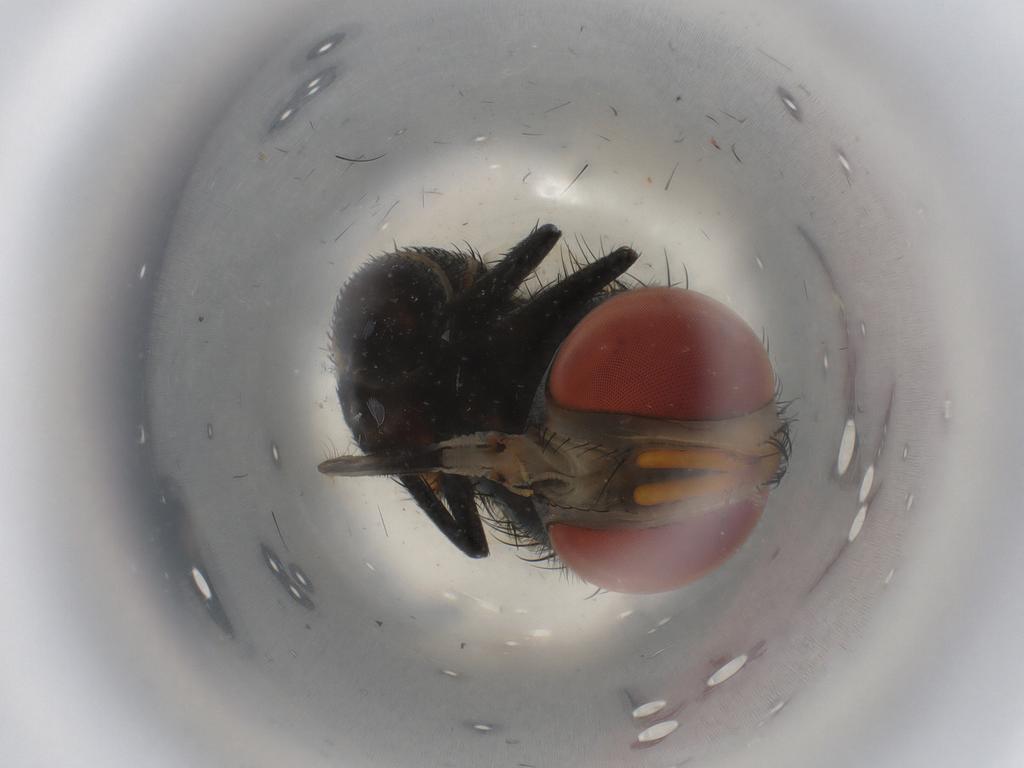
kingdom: Animalia
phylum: Arthropoda
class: Insecta
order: Diptera
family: Sarcophagidae
